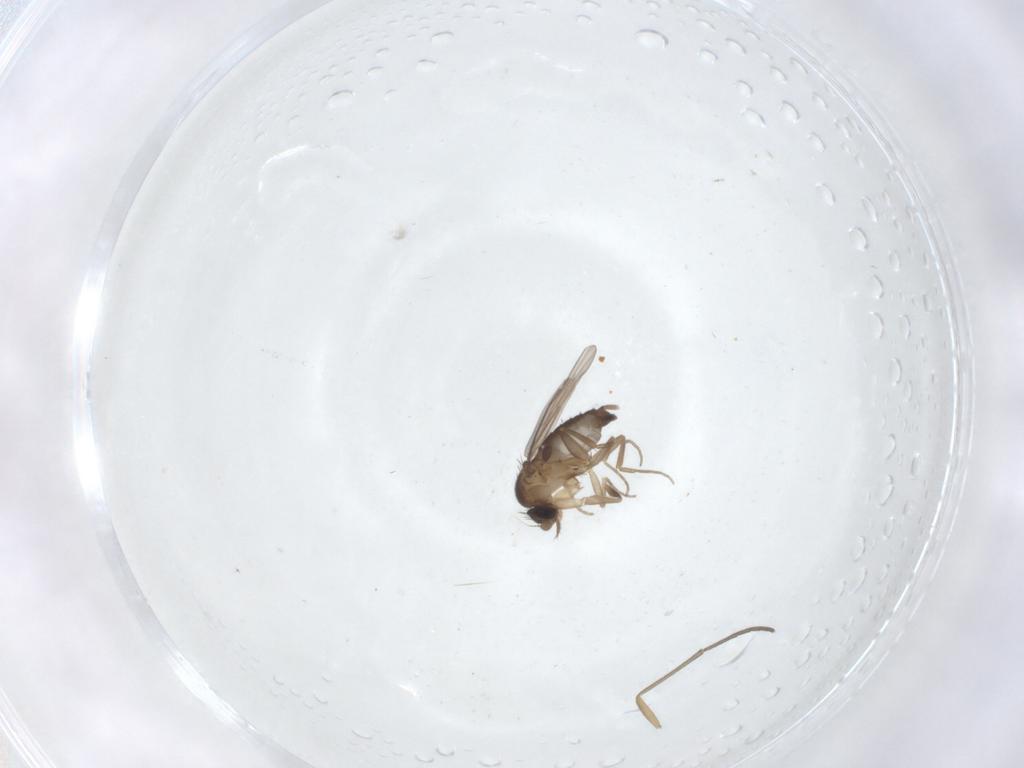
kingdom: Animalia
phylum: Arthropoda
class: Insecta
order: Diptera
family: Phoridae
